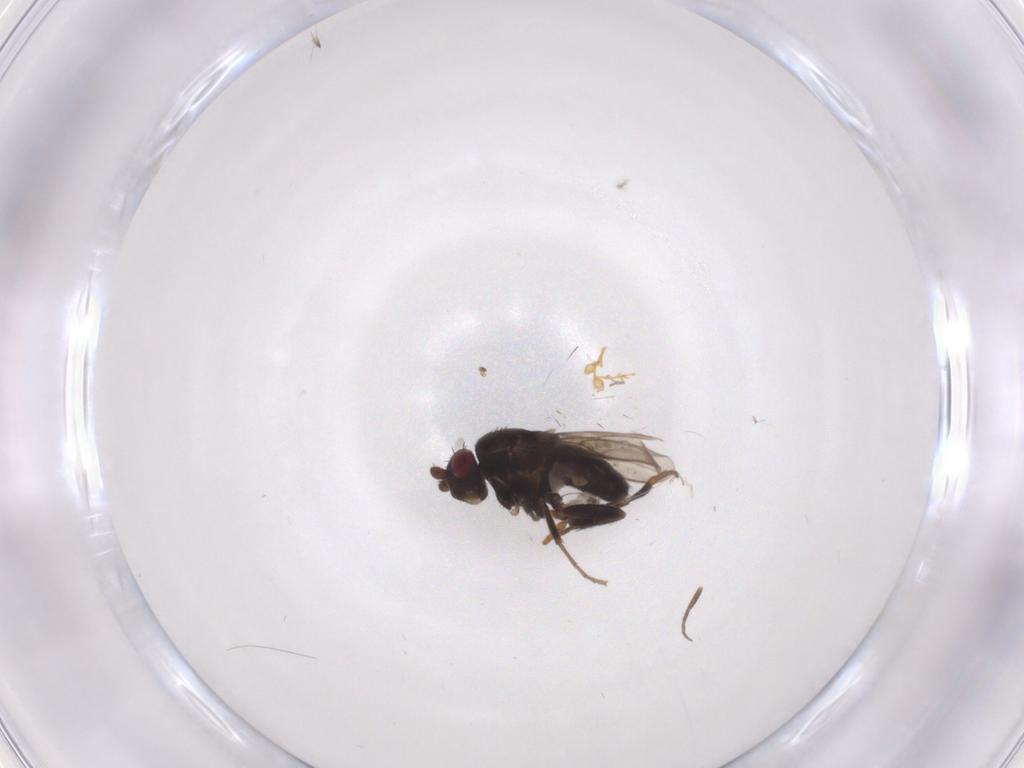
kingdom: Animalia
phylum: Arthropoda
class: Insecta
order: Diptera
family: Sphaeroceridae
